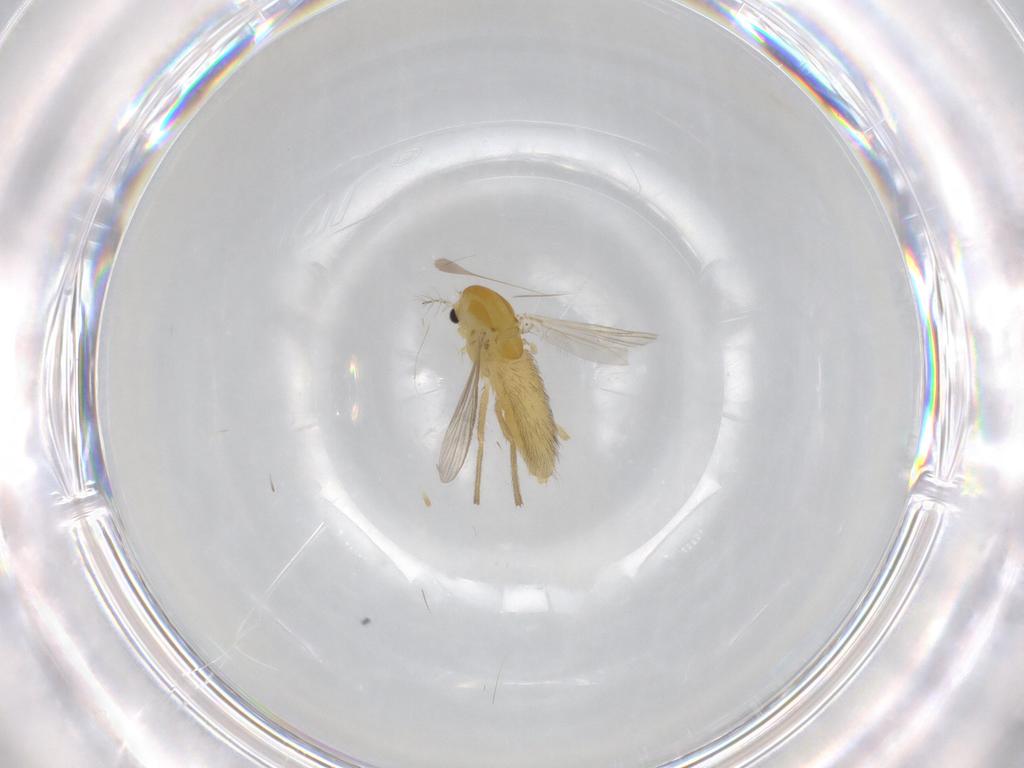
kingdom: Animalia
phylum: Arthropoda
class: Insecta
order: Diptera
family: Chironomidae
